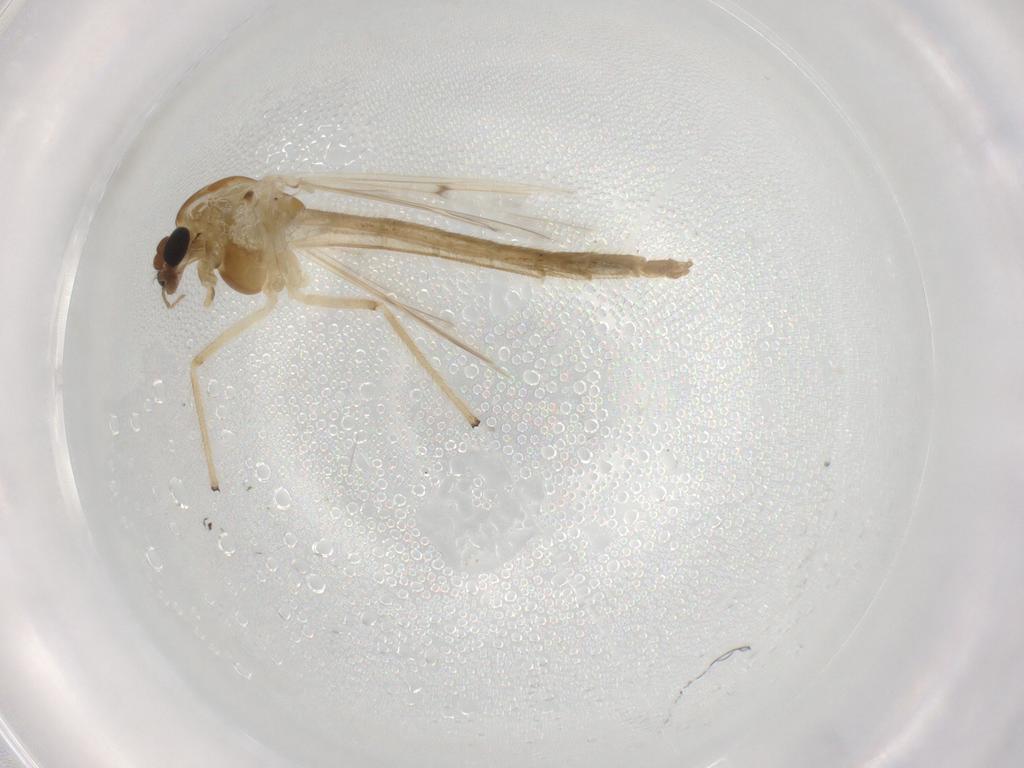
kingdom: Animalia
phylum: Arthropoda
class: Insecta
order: Diptera
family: Chironomidae
